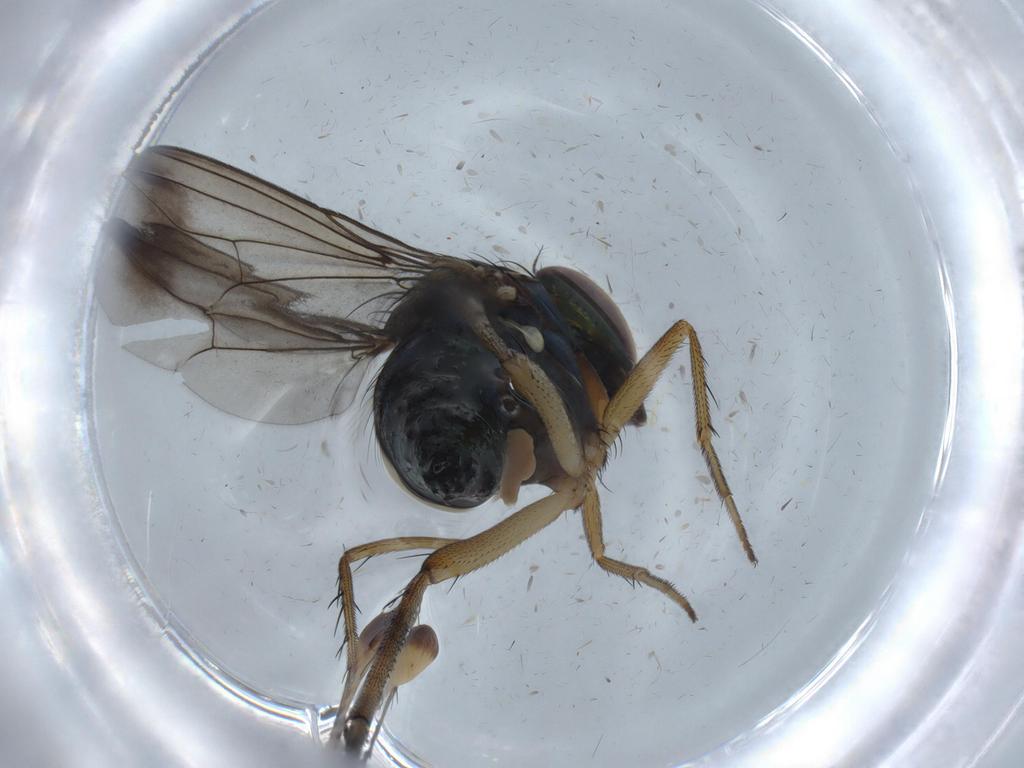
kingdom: Animalia
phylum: Arthropoda
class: Insecta
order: Diptera
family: Dolichopodidae
